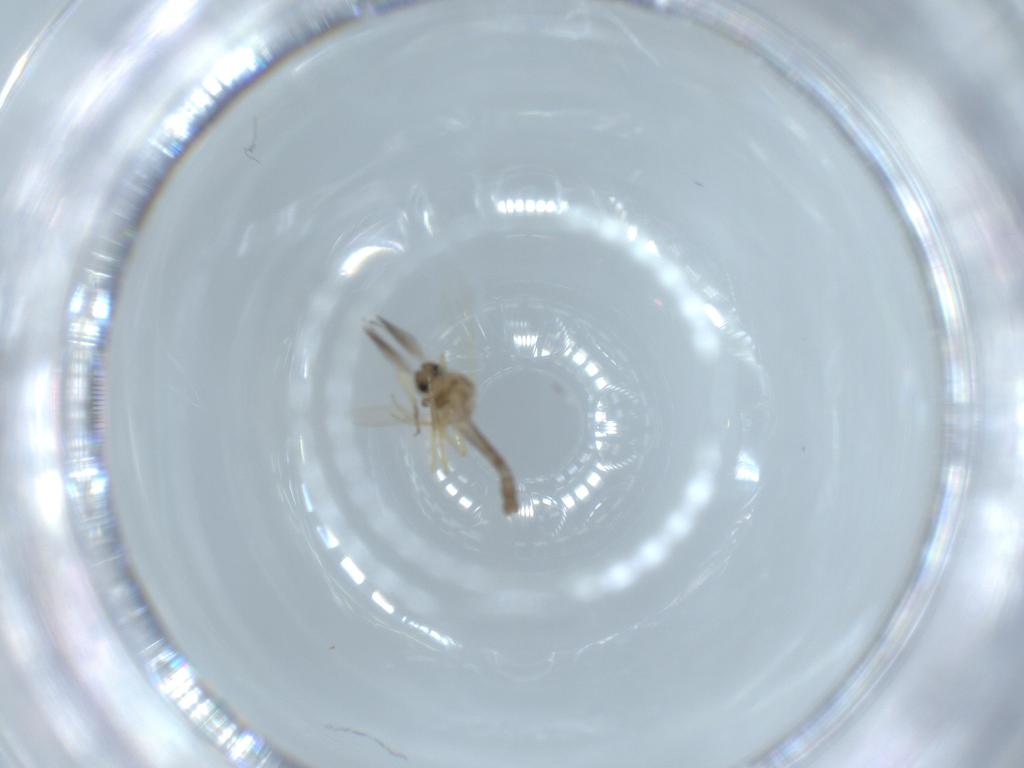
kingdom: Animalia
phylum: Arthropoda
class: Insecta
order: Diptera
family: Ceratopogonidae
